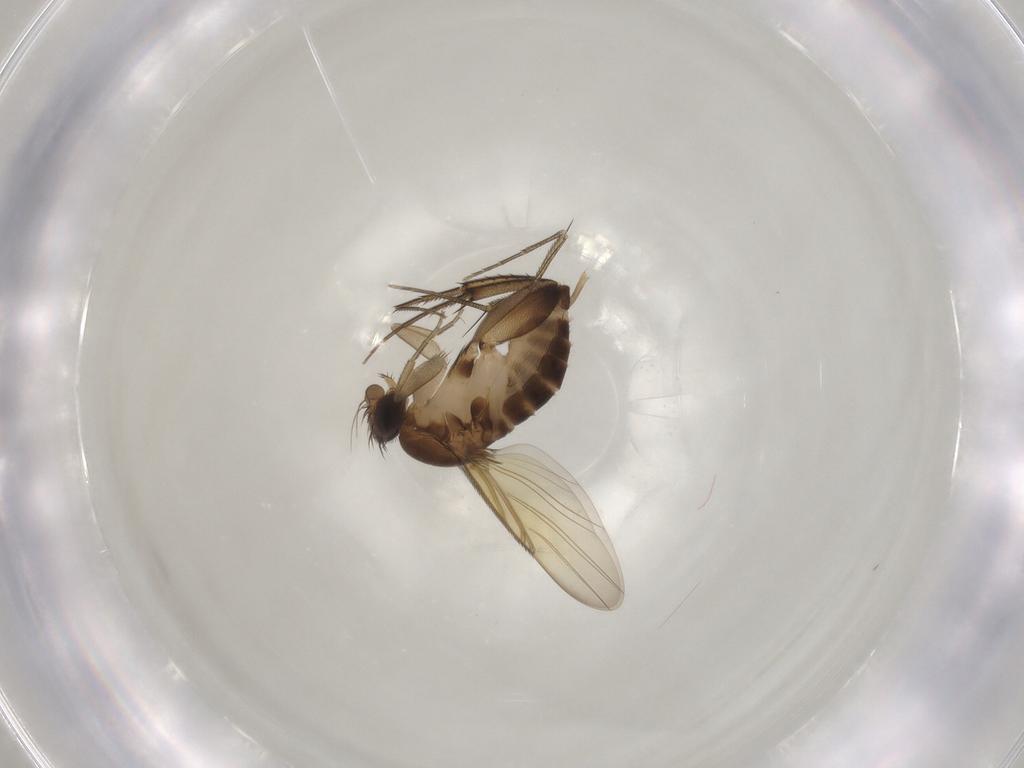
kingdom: Animalia
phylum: Arthropoda
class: Insecta
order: Diptera
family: Phoridae
